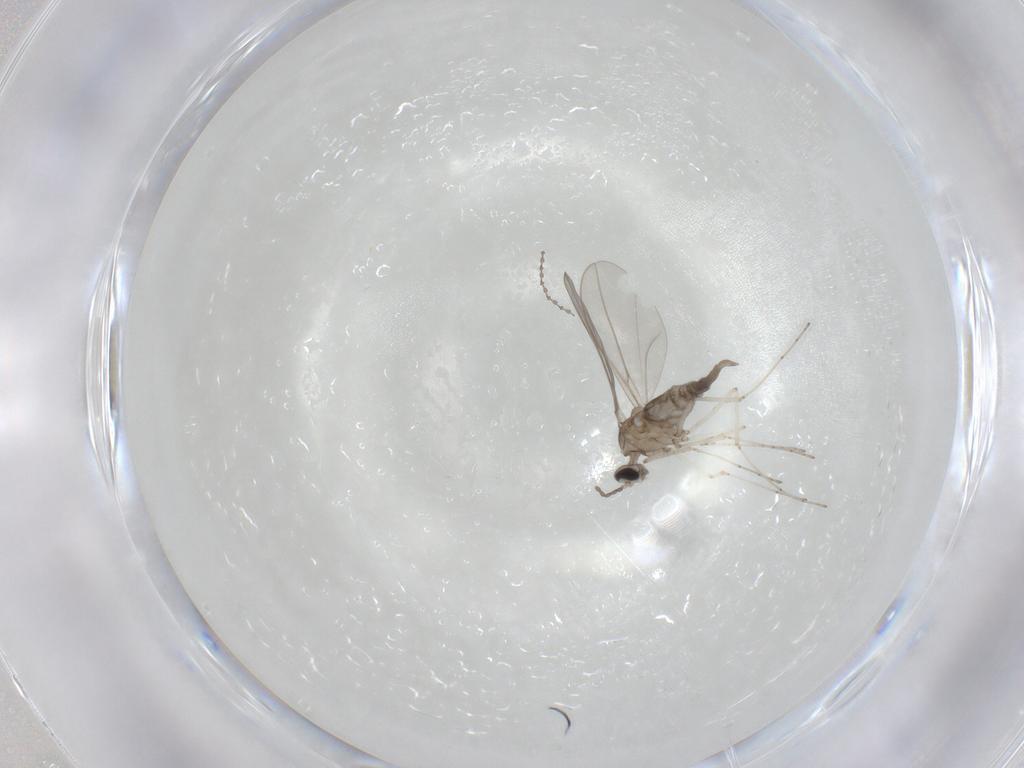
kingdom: Animalia
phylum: Arthropoda
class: Insecta
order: Diptera
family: Cecidomyiidae
